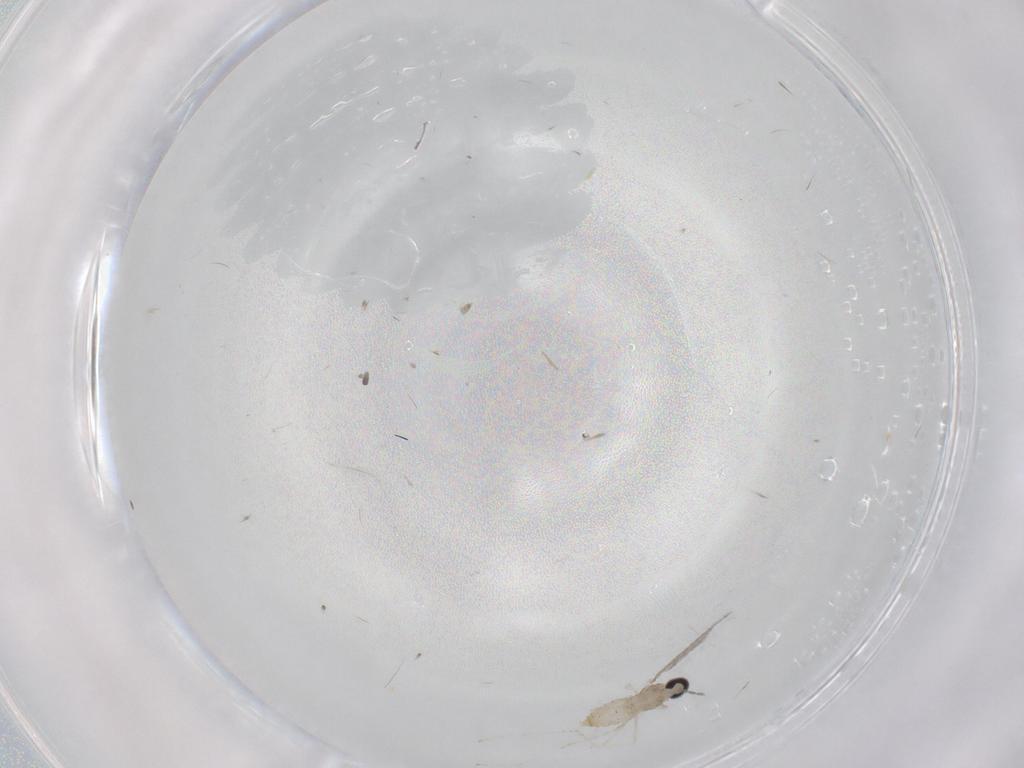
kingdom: Animalia
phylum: Arthropoda
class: Insecta
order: Diptera
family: Cecidomyiidae
